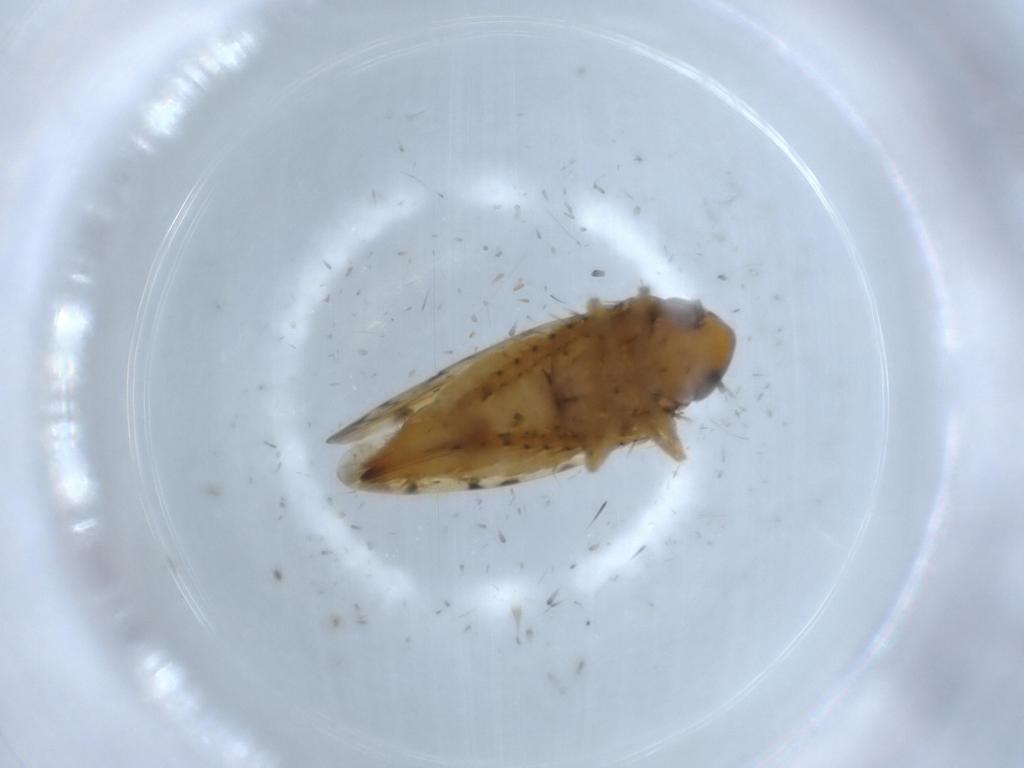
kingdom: Animalia
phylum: Arthropoda
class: Insecta
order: Hemiptera
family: Cicadellidae
